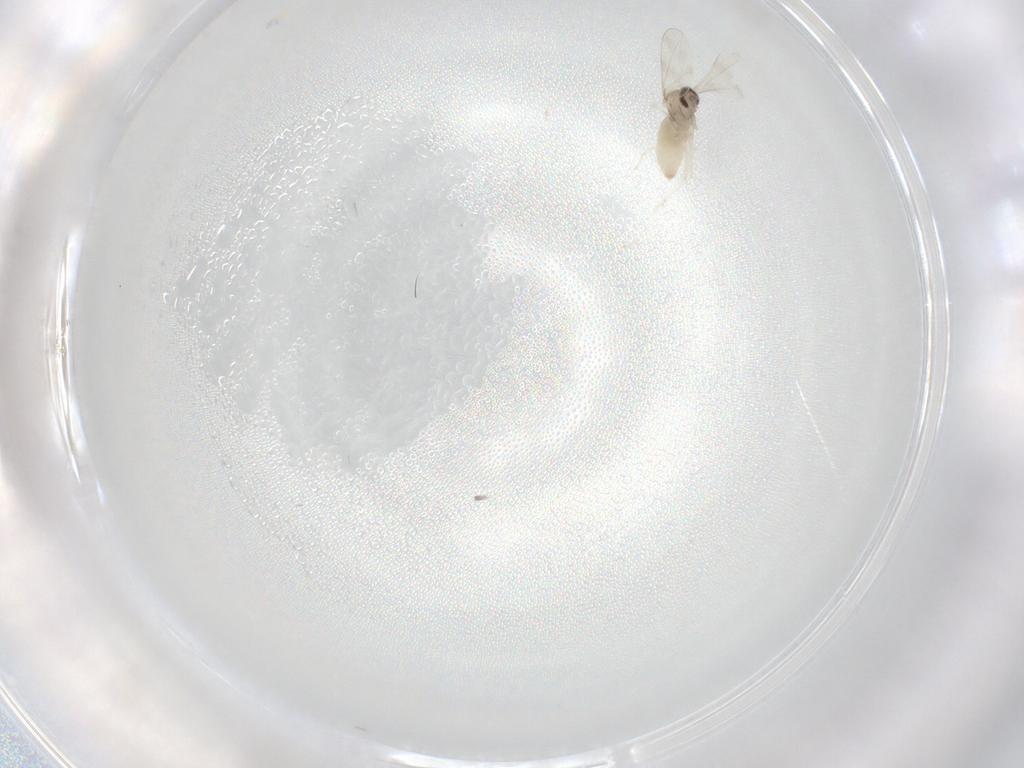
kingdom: Animalia
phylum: Arthropoda
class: Insecta
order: Diptera
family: Cecidomyiidae
